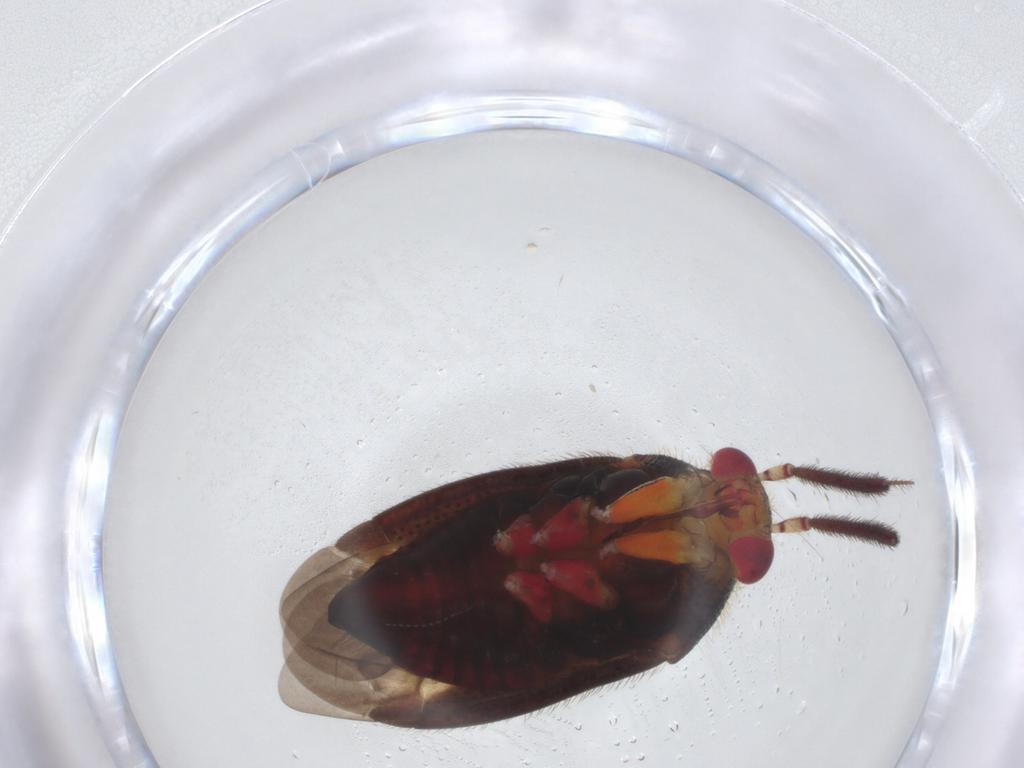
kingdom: Animalia
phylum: Arthropoda
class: Insecta
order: Hemiptera
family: Miridae
